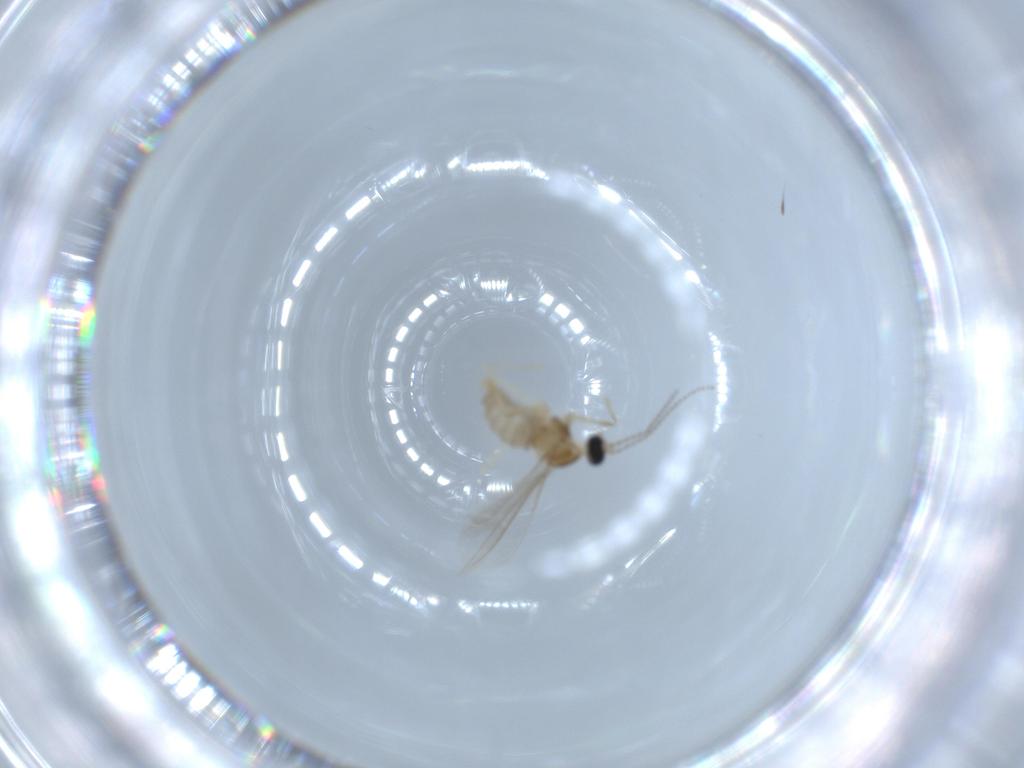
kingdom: Animalia
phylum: Arthropoda
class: Insecta
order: Diptera
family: Cecidomyiidae
